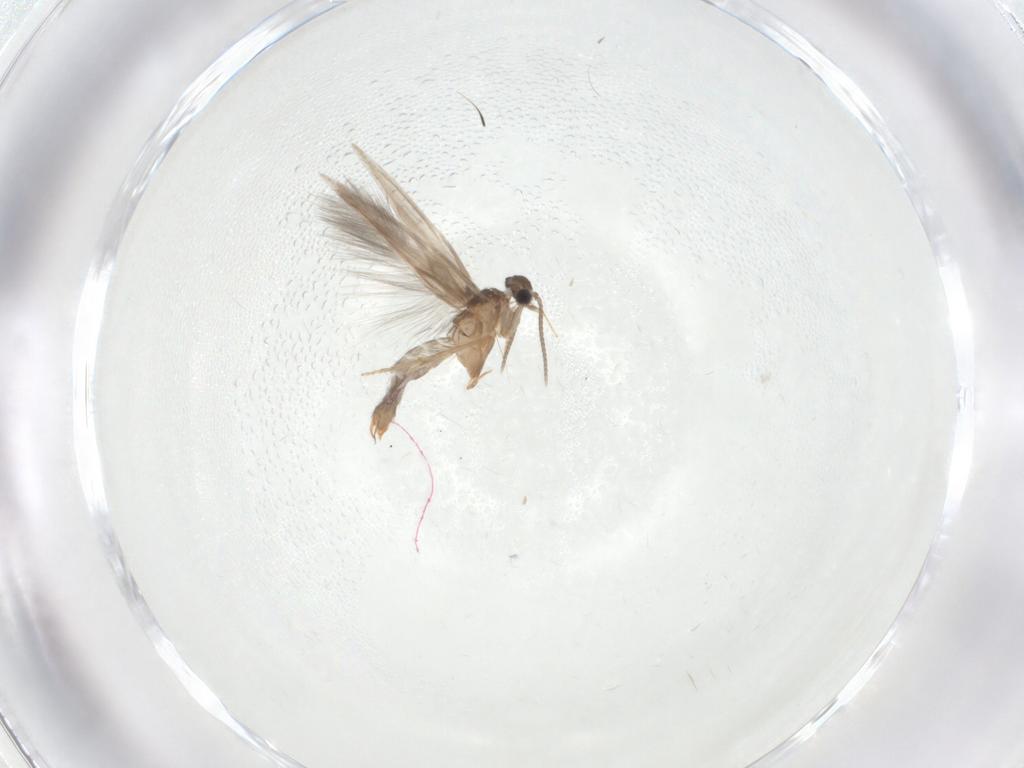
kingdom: Animalia
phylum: Arthropoda
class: Insecta
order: Trichoptera
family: Hydroptilidae
